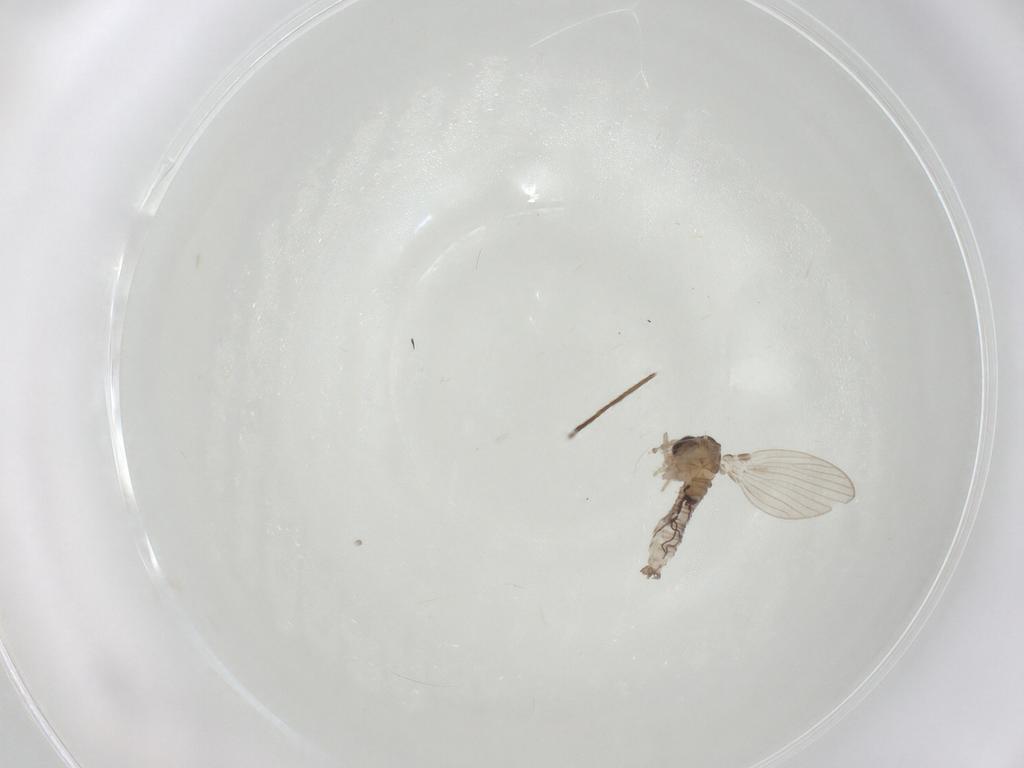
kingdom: Animalia
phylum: Arthropoda
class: Insecta
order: Diptera
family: Psychodidae
